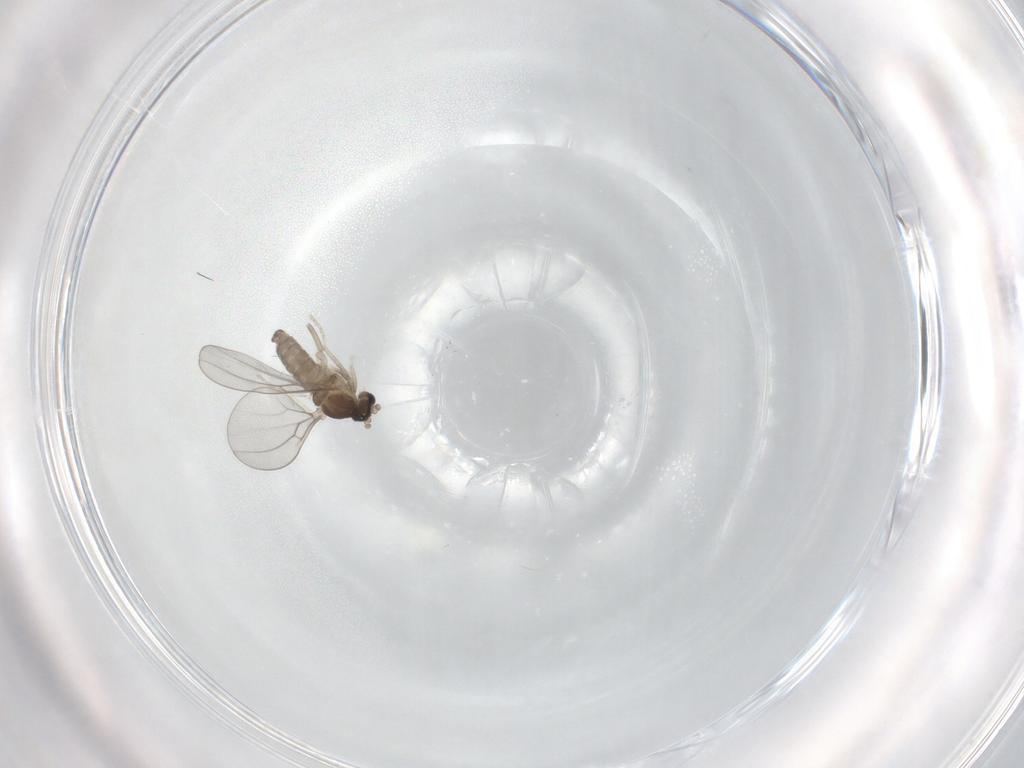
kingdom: Animalia
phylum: Arthropoda
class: Insecta
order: Diptera
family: Cecidomyiidae
